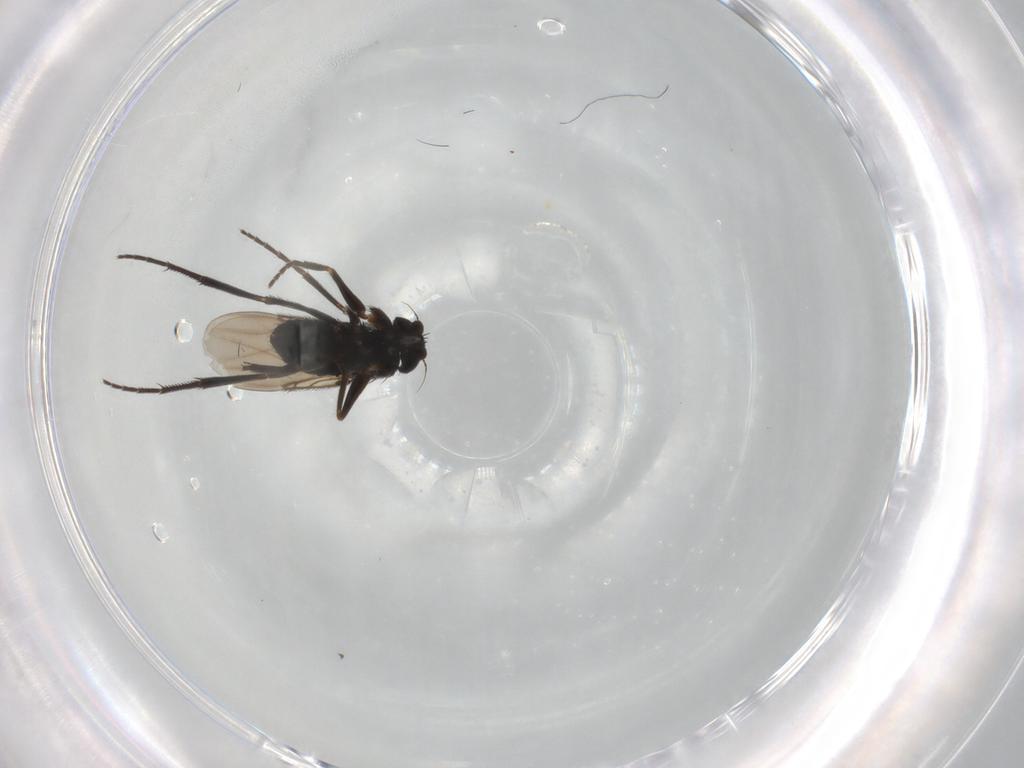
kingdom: Animalia
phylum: Arthropoda
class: Insecta
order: Diptera
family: Phoridae
